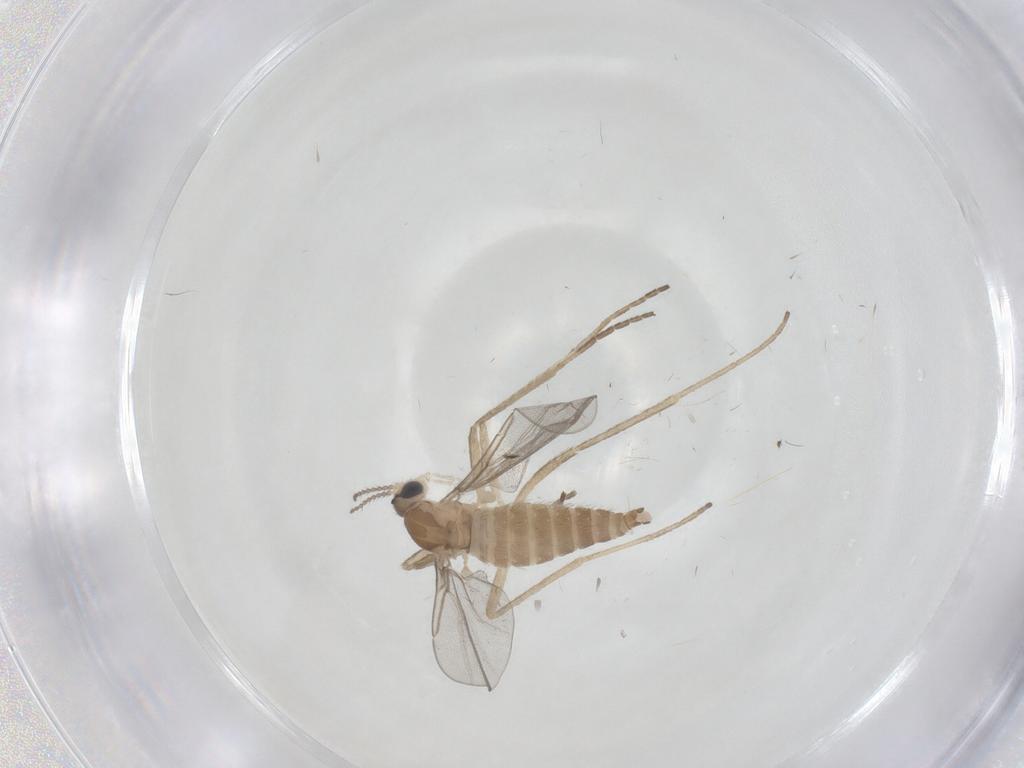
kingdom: Animalia
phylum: Arthropoda
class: Insecta
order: Diptera
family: Cecidomyiidae
